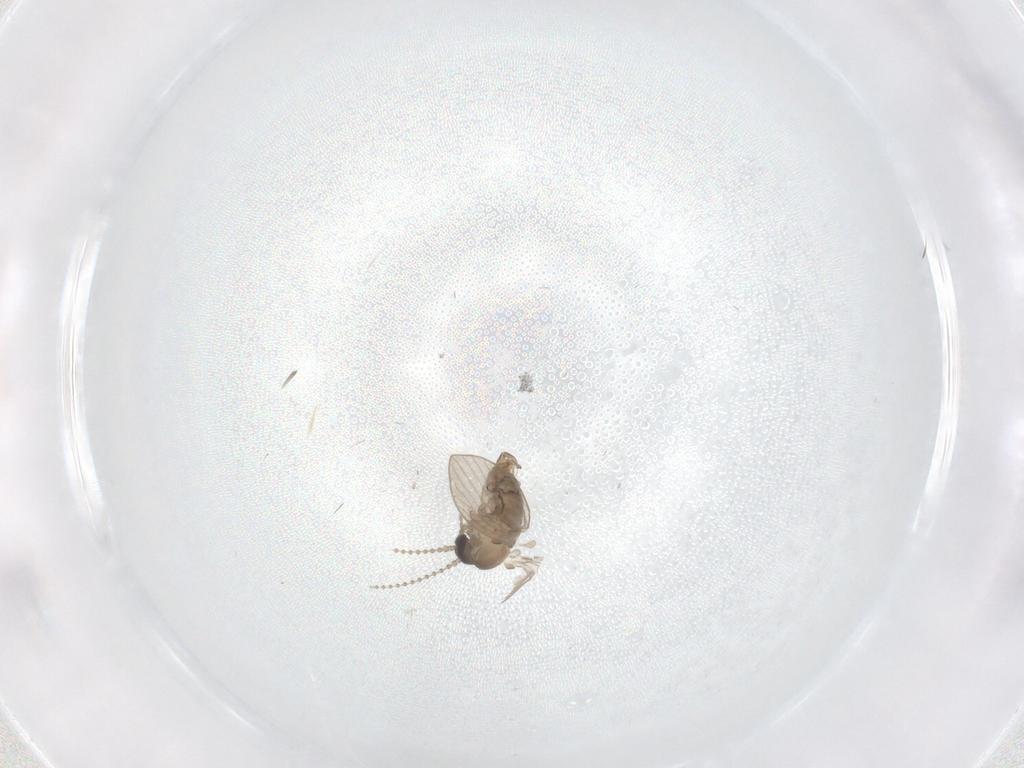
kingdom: Animalia
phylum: Arthropoda
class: Insecta
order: Diptera
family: Psychodidae
